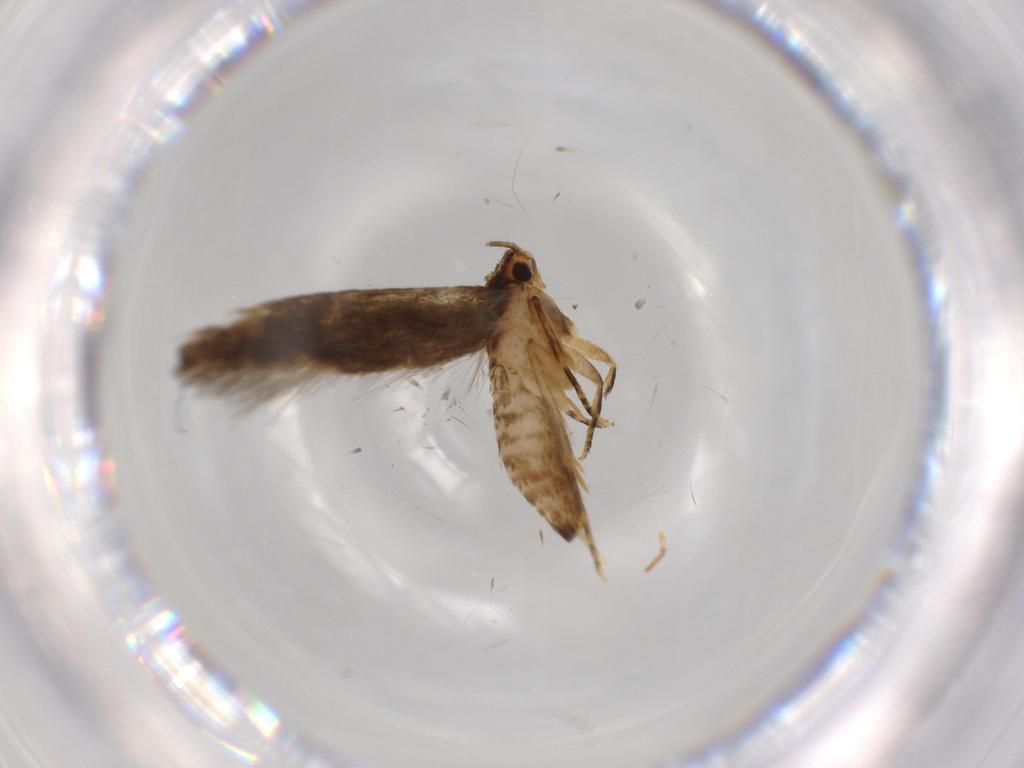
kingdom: Animalia
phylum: Arthropoda
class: Insecta
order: Lepidoptera
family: Tineidae
